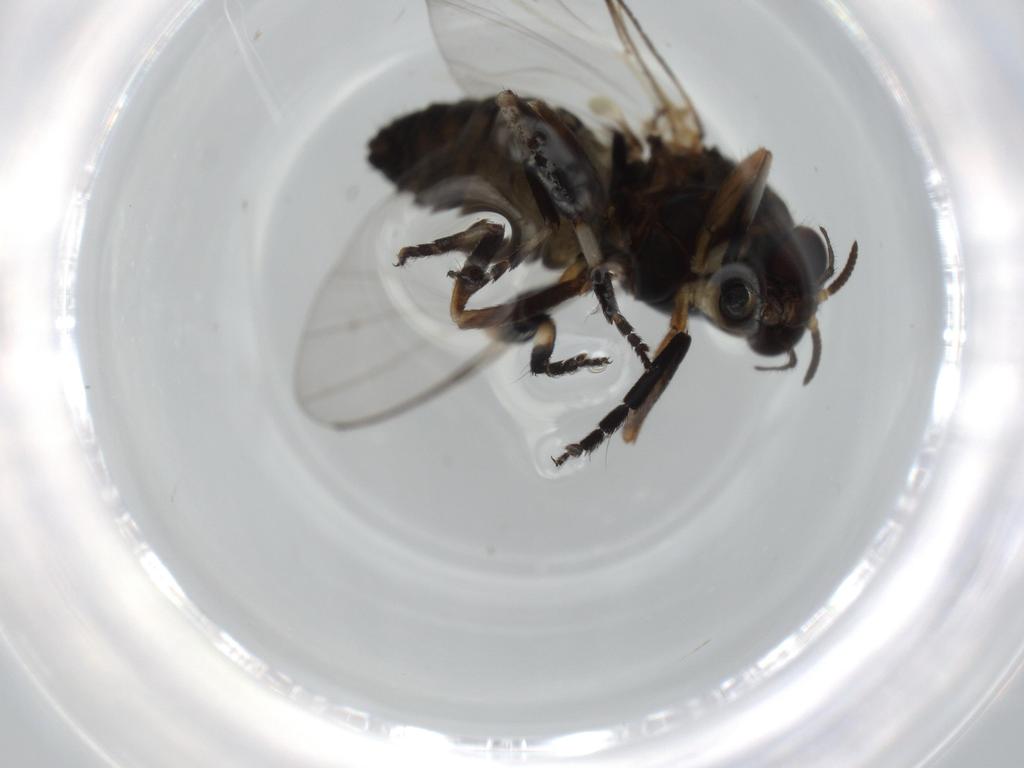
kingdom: Animalia
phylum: Arthropoda
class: Insecta
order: Diptera
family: Phoridae
